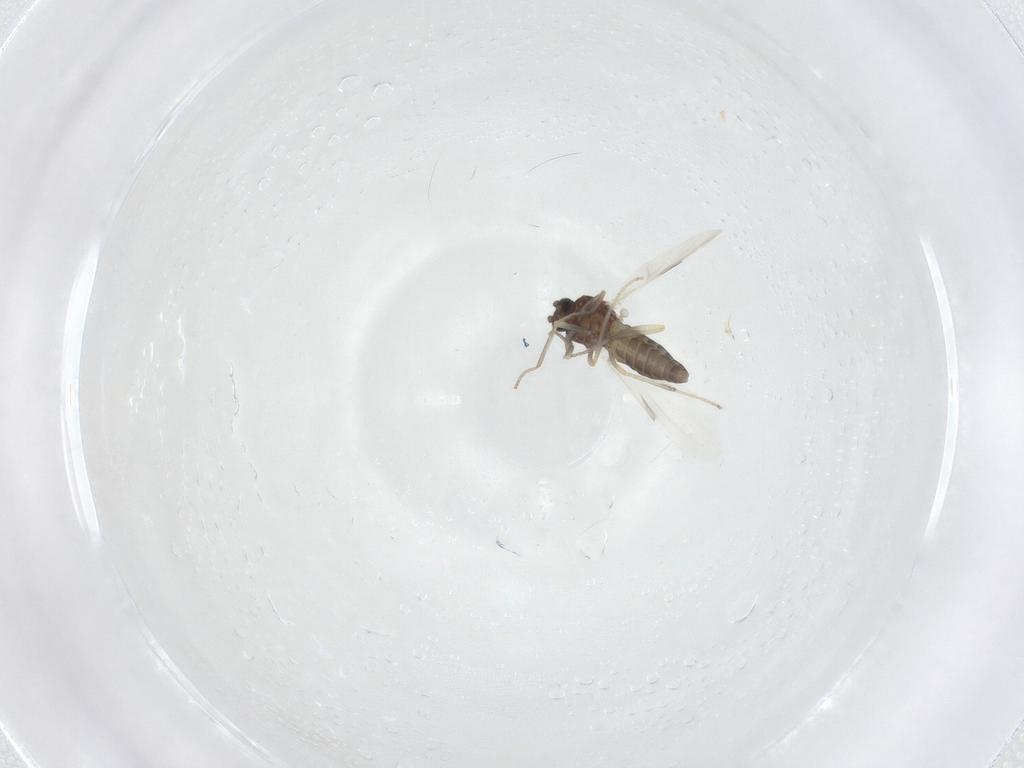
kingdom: Animalia
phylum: Arthropoda
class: Insecta
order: Diptera
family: Ceratopogonidae
